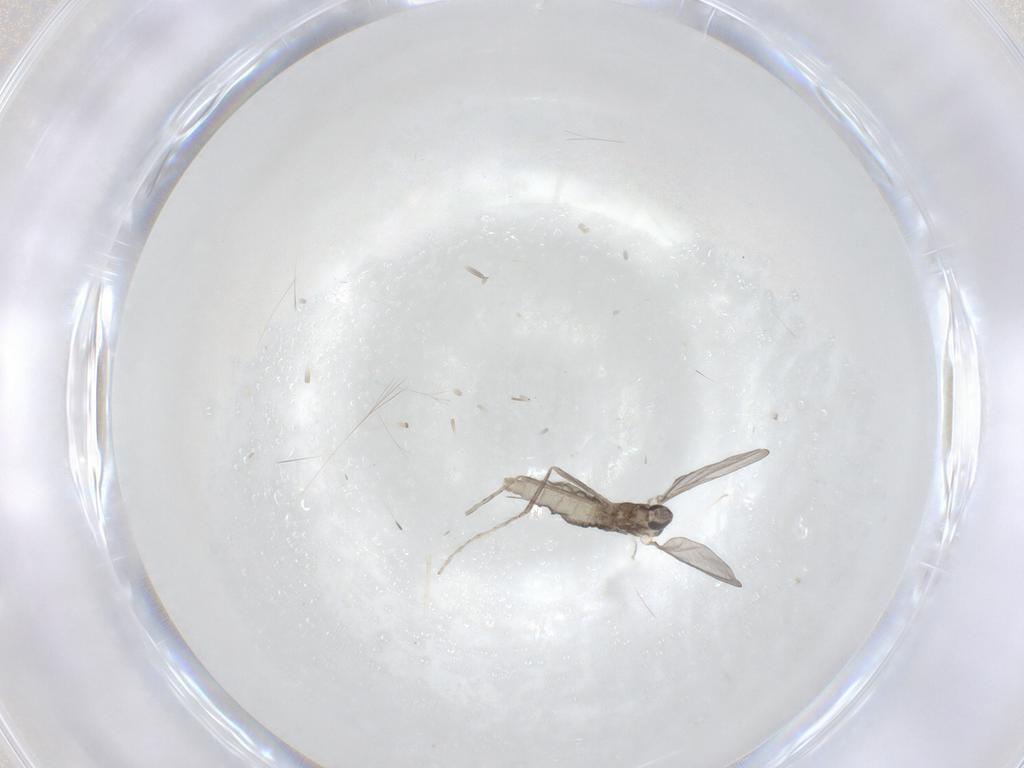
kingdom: Animalia
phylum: Arthropoda
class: Insecta
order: Diptera
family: Cecidomyiidae
